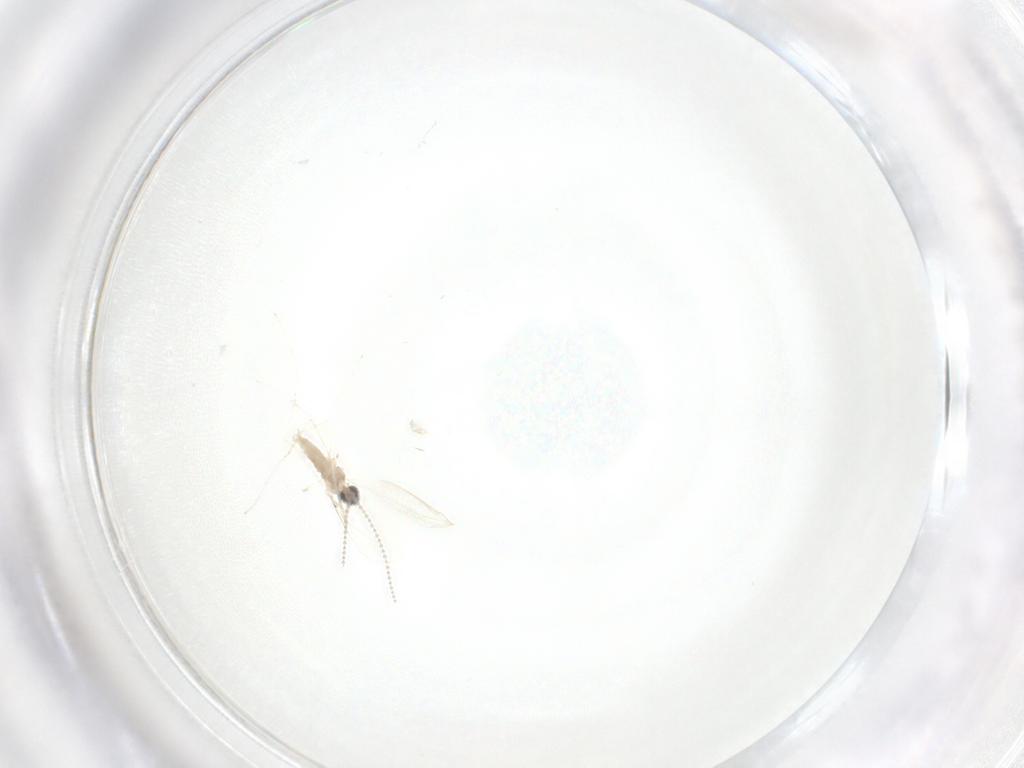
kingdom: Animalia
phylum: Arthropoda
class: Insecta
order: Diptera
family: Cecidomyiidae
